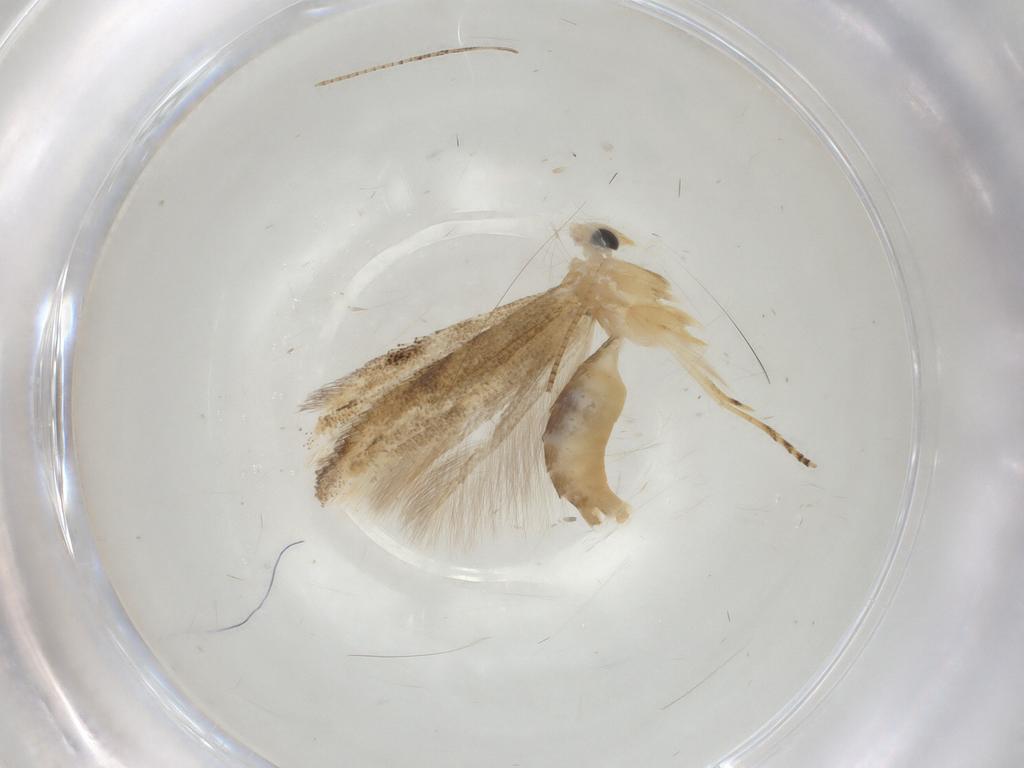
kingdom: Animalia
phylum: Arthropoda
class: Insecta
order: Lepidoptera
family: Bucculatricidae
